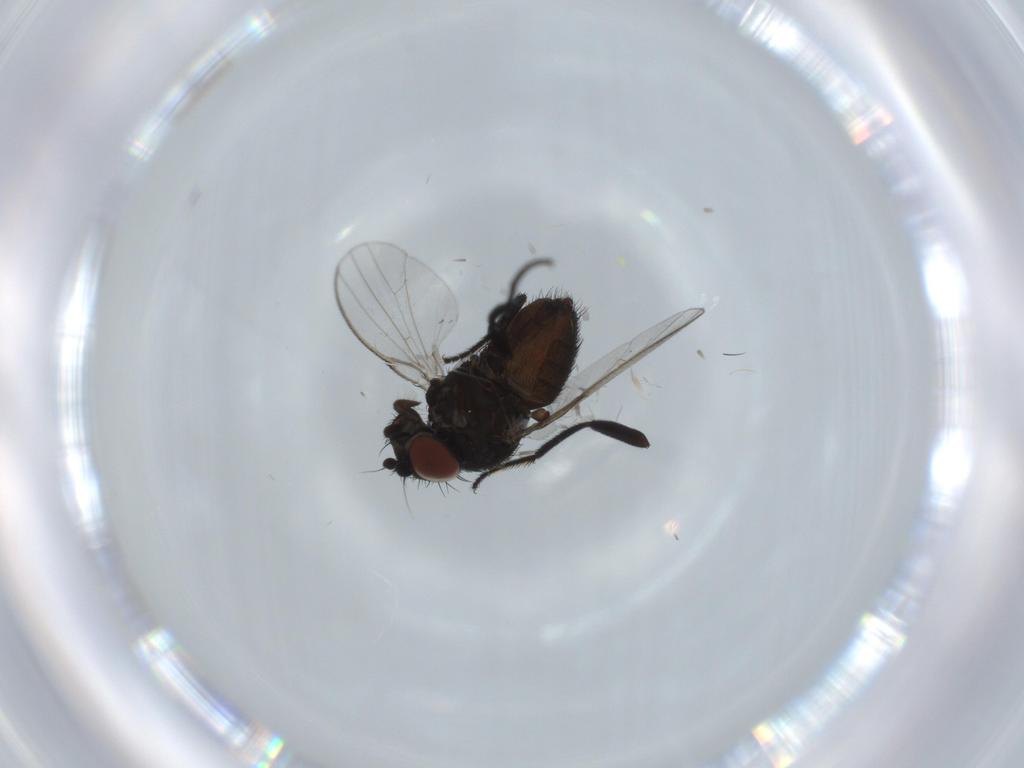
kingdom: Animalia
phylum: Arthropoda
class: Insecta
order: Diptera
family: Milichiidae
